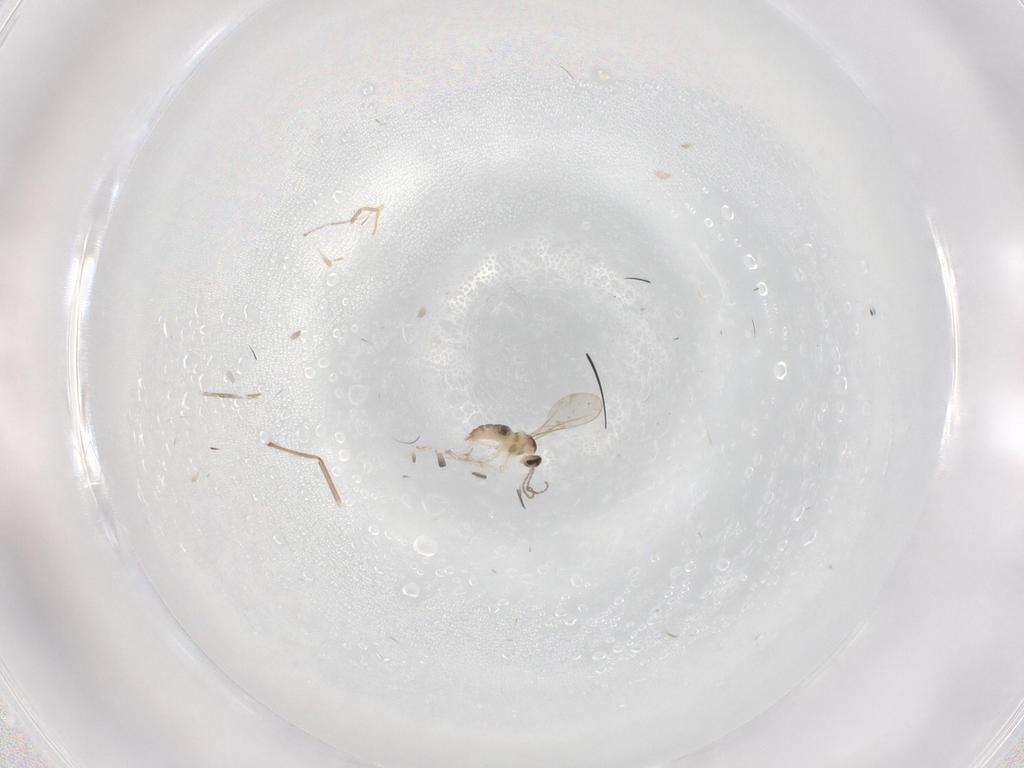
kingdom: Animalia
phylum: Arthropoda
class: Insecta
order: Diptera
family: Cecidomyiidae
